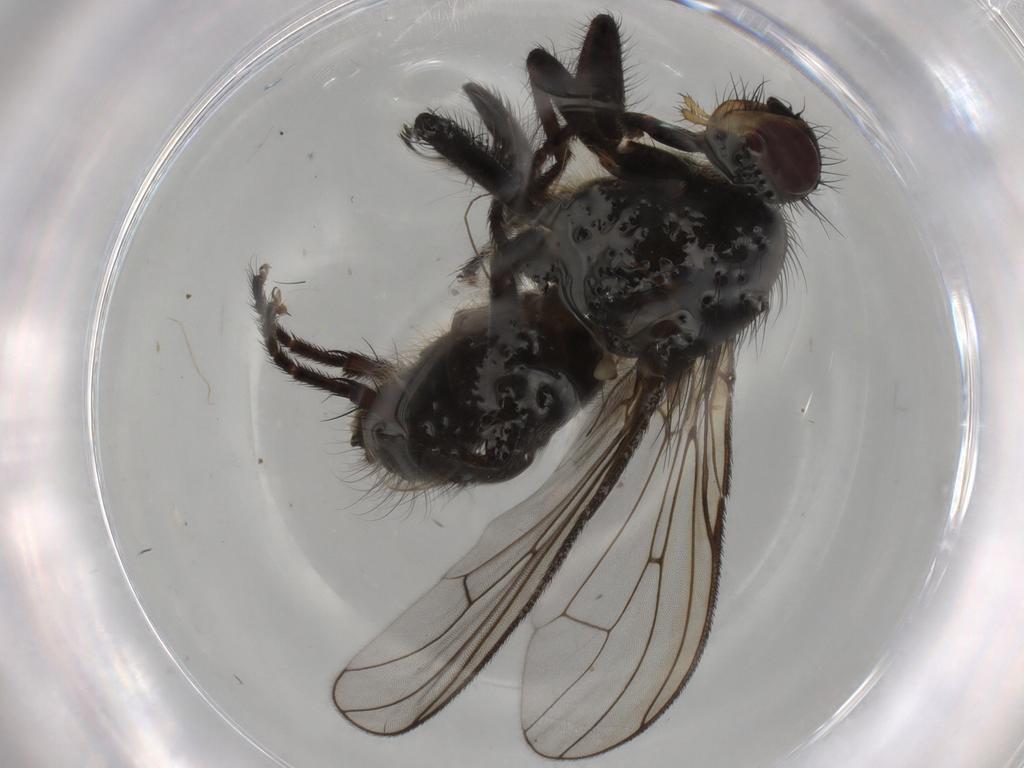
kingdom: Animalia
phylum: Arthropoda
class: Insecta
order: Diptera
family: Scathophagidae
